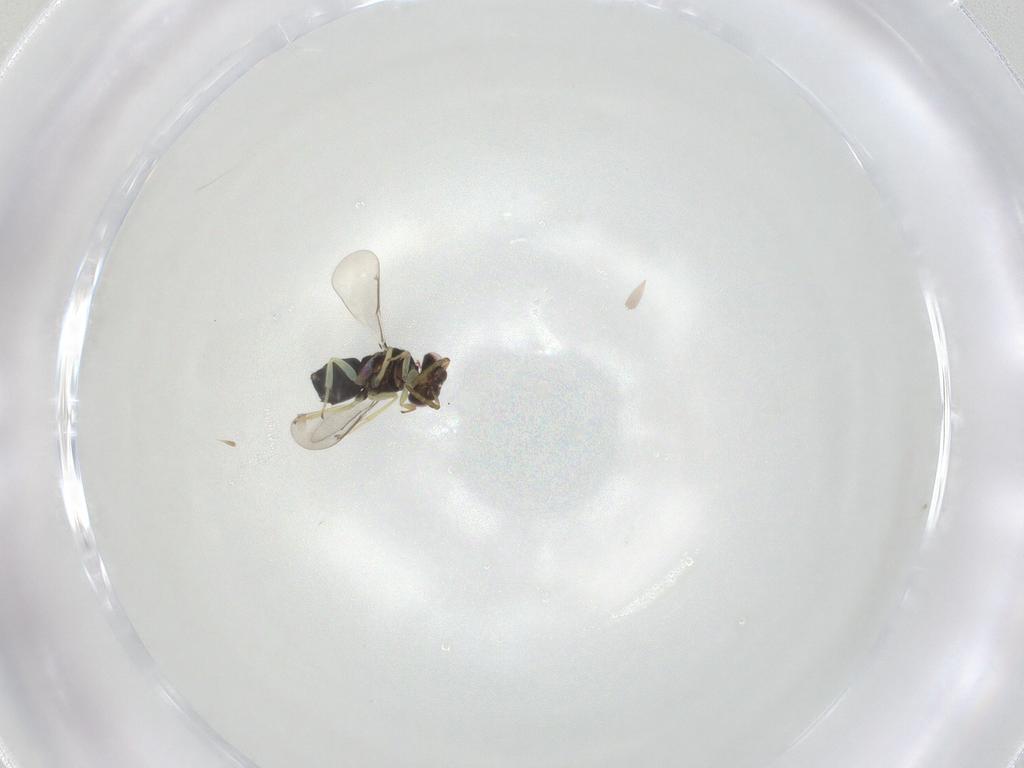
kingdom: Animalia
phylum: Arthropoda
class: Insecta
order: Hymenoptera
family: Aphelinidae
